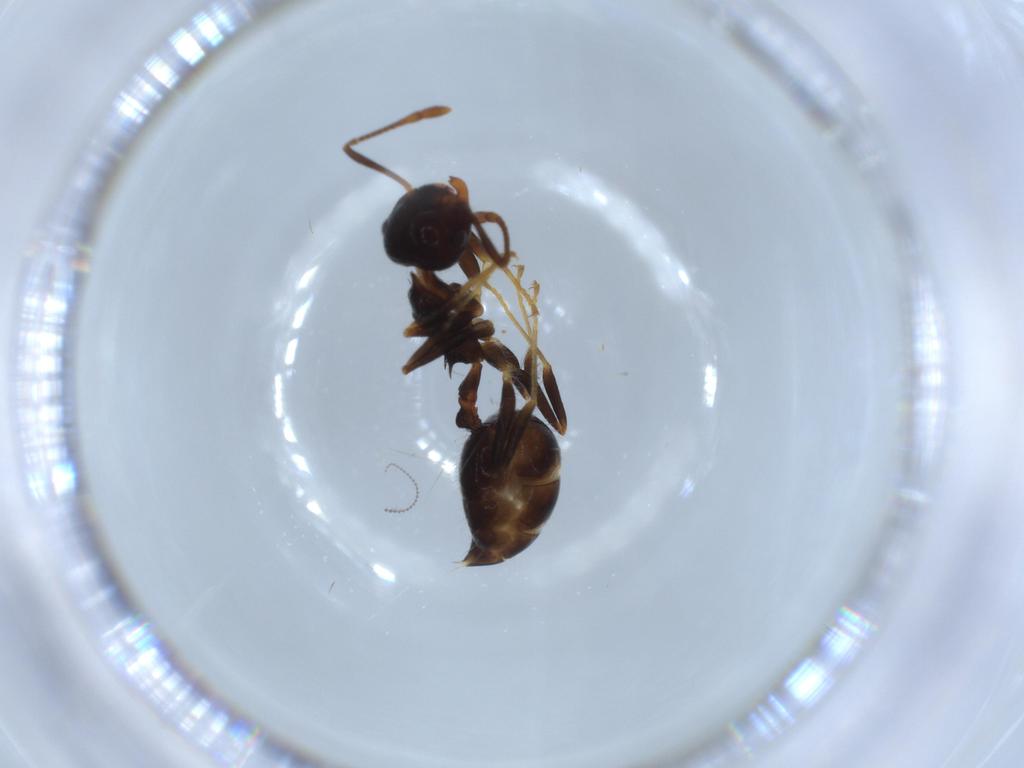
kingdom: Animalia
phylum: Arthropoda
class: Insecta
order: Hymenoptera
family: Formicidae
